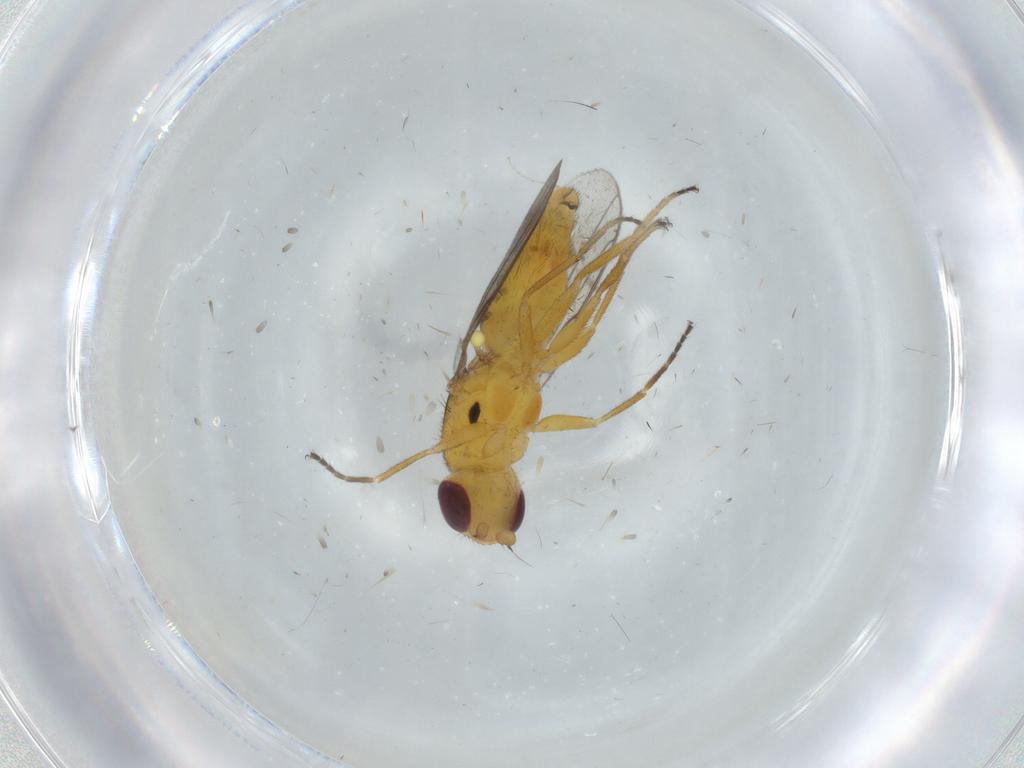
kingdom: Animalia
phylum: Arthropoda
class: Insecta
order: Diptera
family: Chloropidae
